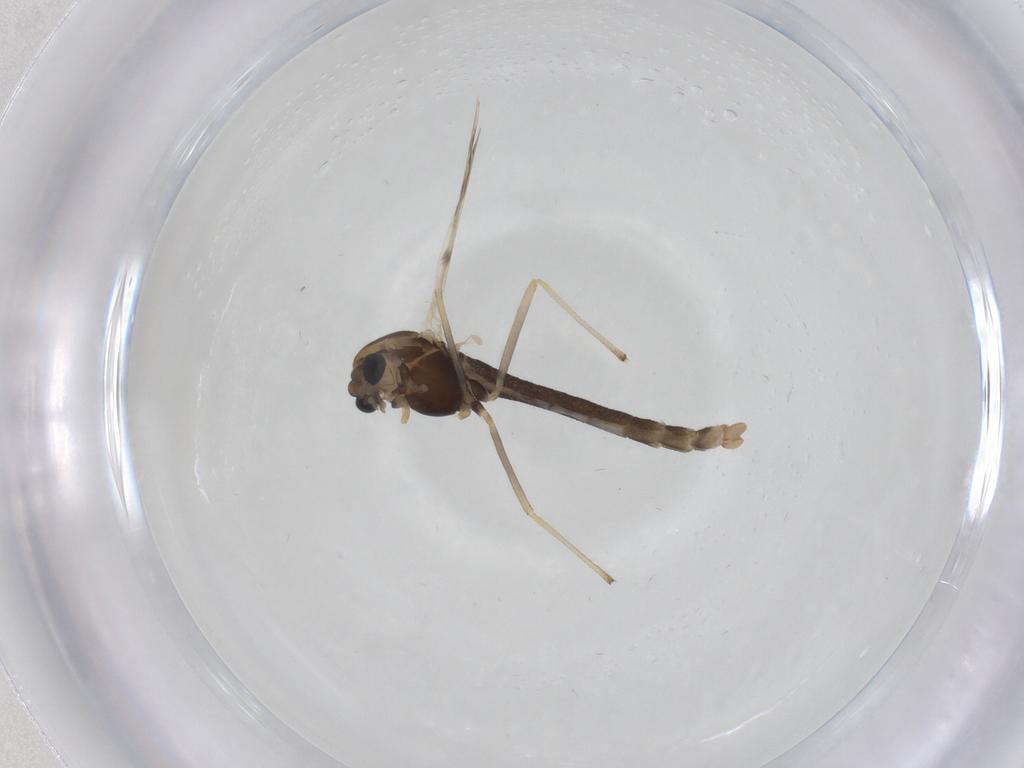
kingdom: Animalia
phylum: Arthropoda
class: Insecta
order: Diptera
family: Chironomidae
